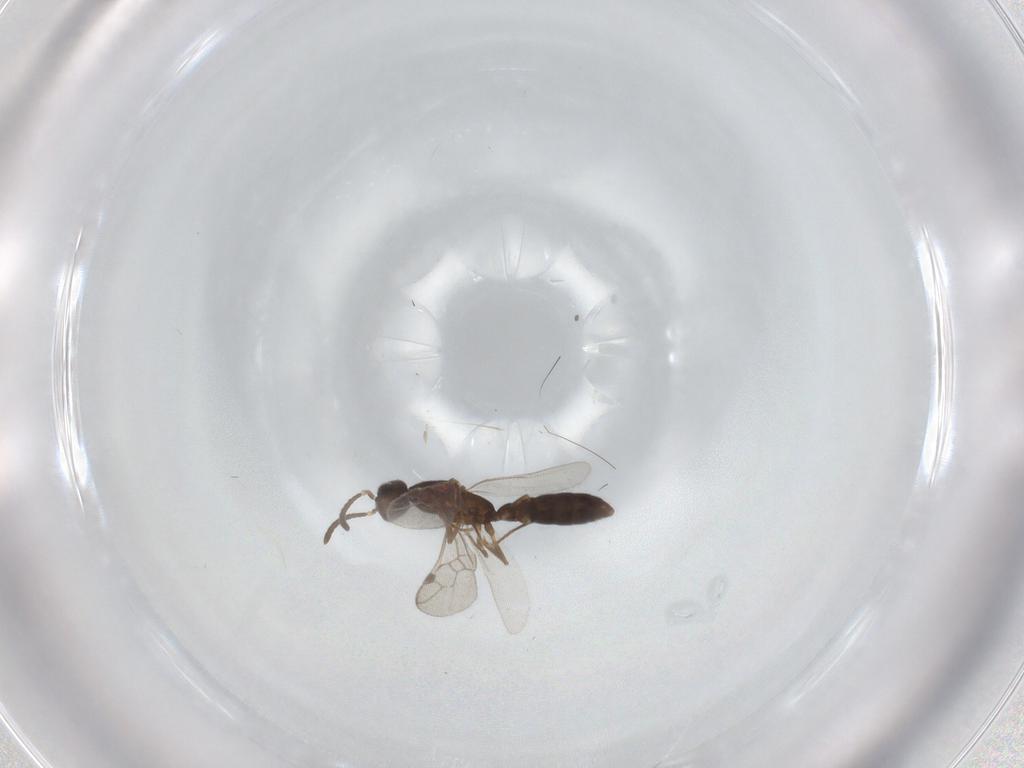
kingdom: Animalia
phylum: Arthropoda
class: Insecta
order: Hymenoptera
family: Formicidae
